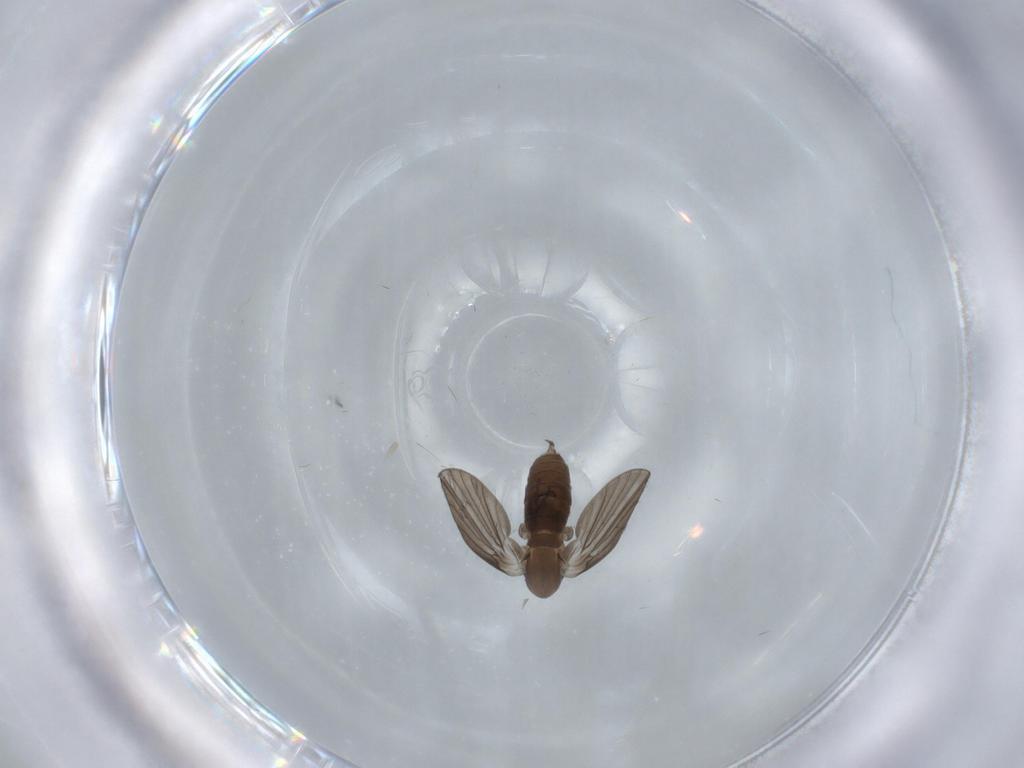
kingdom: Animalia
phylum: Arthropoda
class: Insecta
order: Diptera
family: Psychodidae
